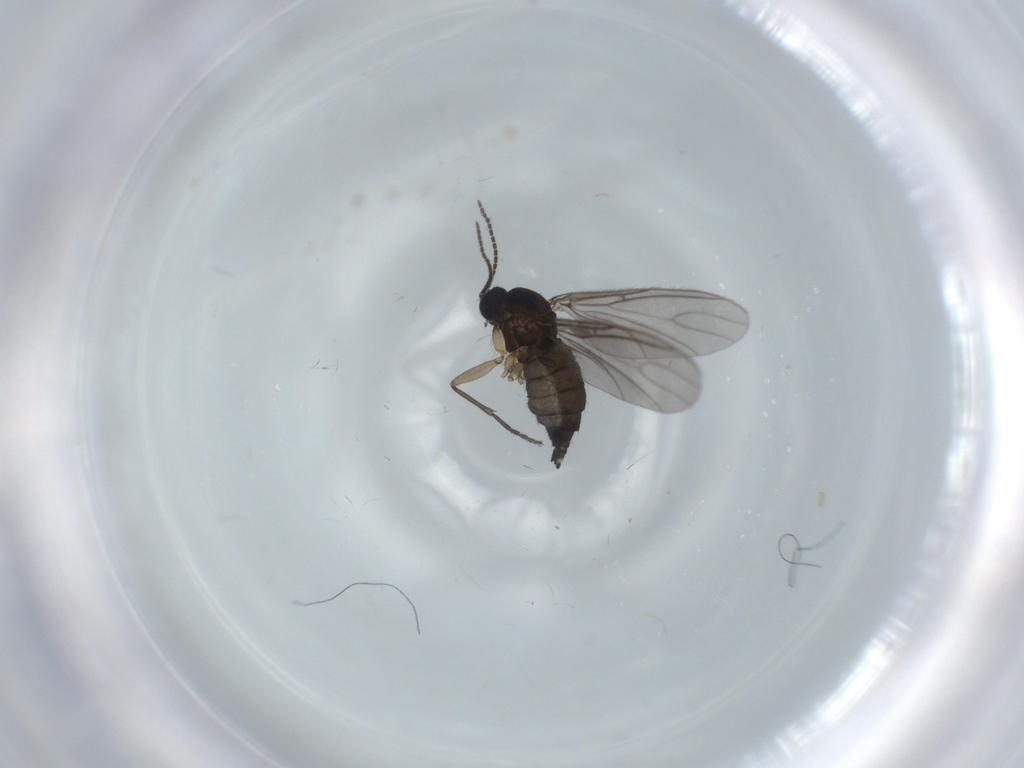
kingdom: Animalia
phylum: Arthropoda
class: Insecta
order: Diptera
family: Sciaridae
